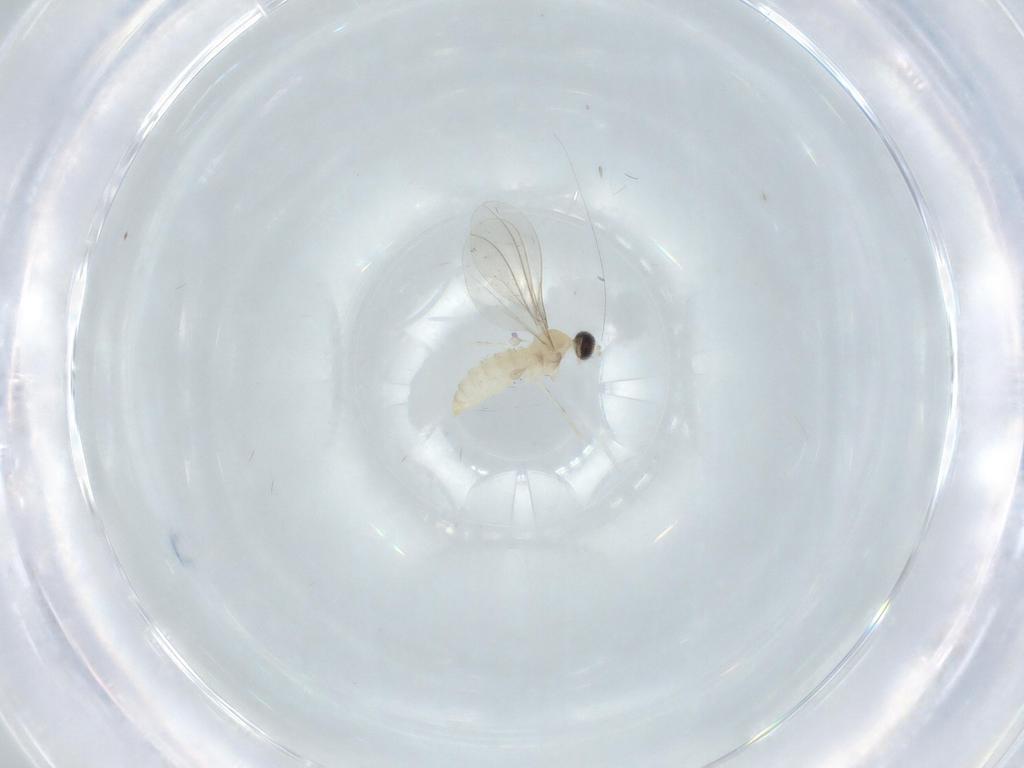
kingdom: Animalia
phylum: Arthropoda
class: Insecta
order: Diptera
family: Cecidomyiidae
